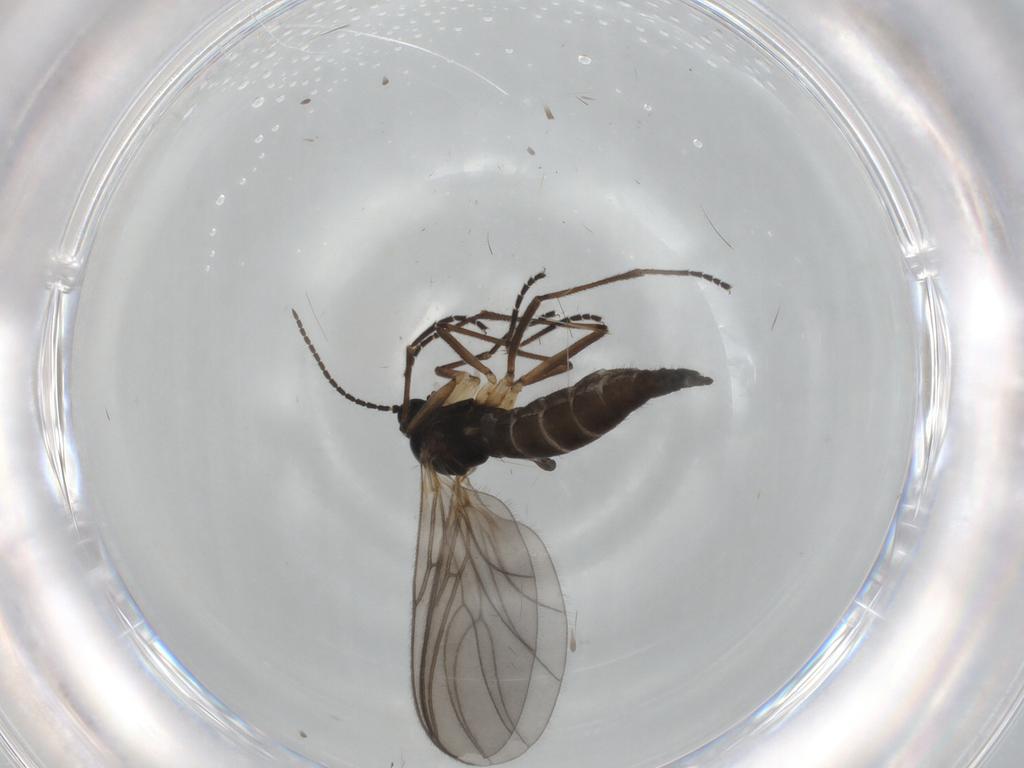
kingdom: Animalia
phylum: Arthropoda
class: Insecta
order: Diptera
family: Sciaridae
